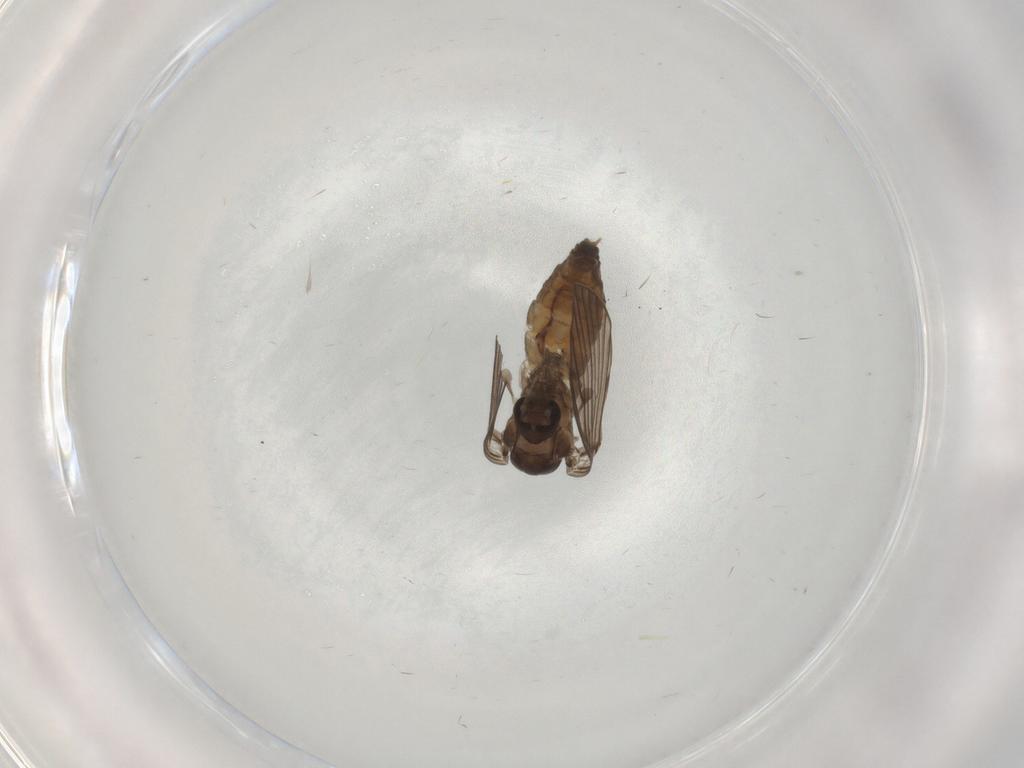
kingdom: Animalia
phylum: Arthropoda
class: Insecta
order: Diptera
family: Psychodidae
